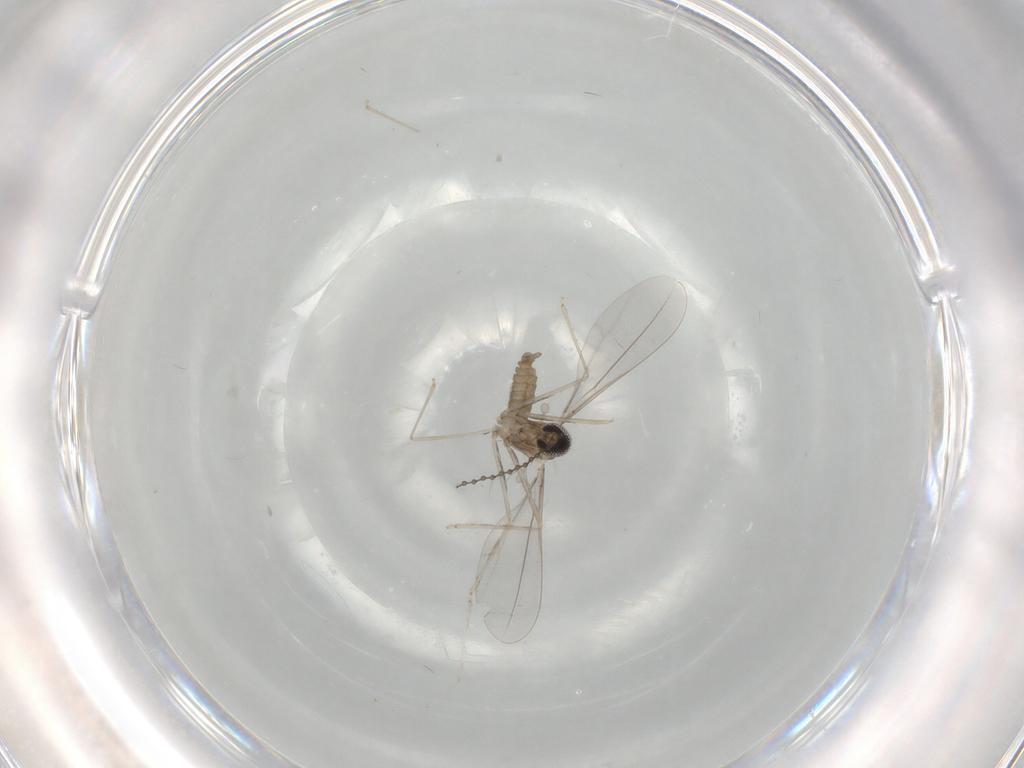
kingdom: Animalia
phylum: Arthropoda
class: Insecta
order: Diptera
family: Cecidomyiidae
